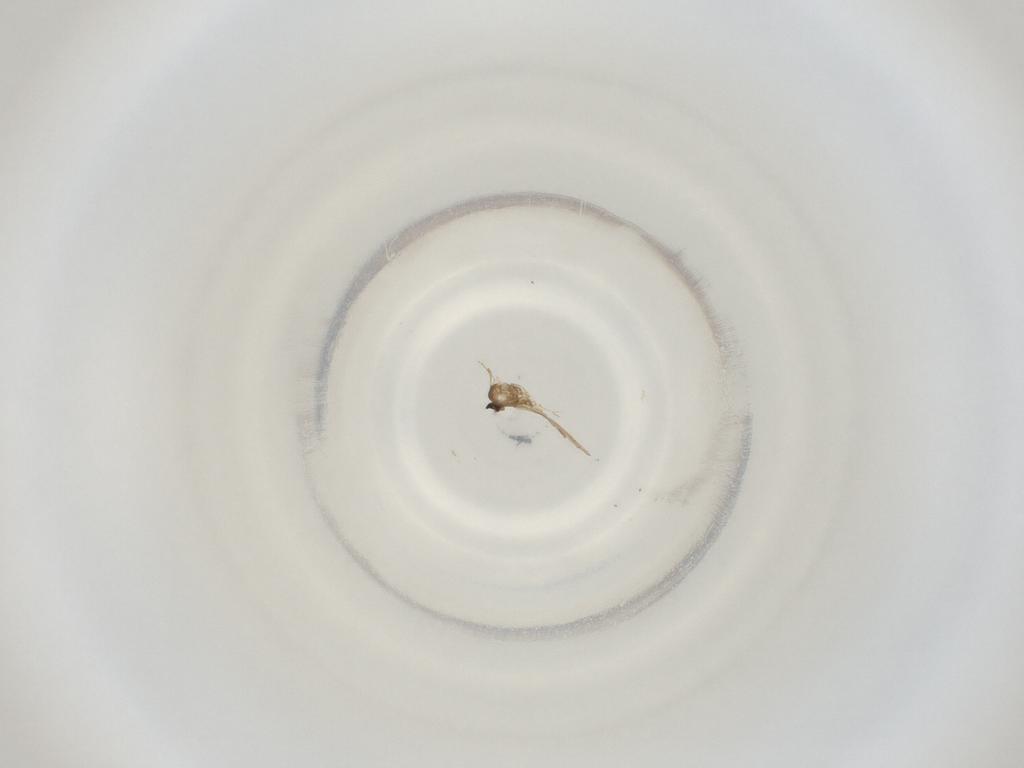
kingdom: Animalia
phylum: Arthropoda
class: Insecta
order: Diptera
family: Cecidomyiidae
